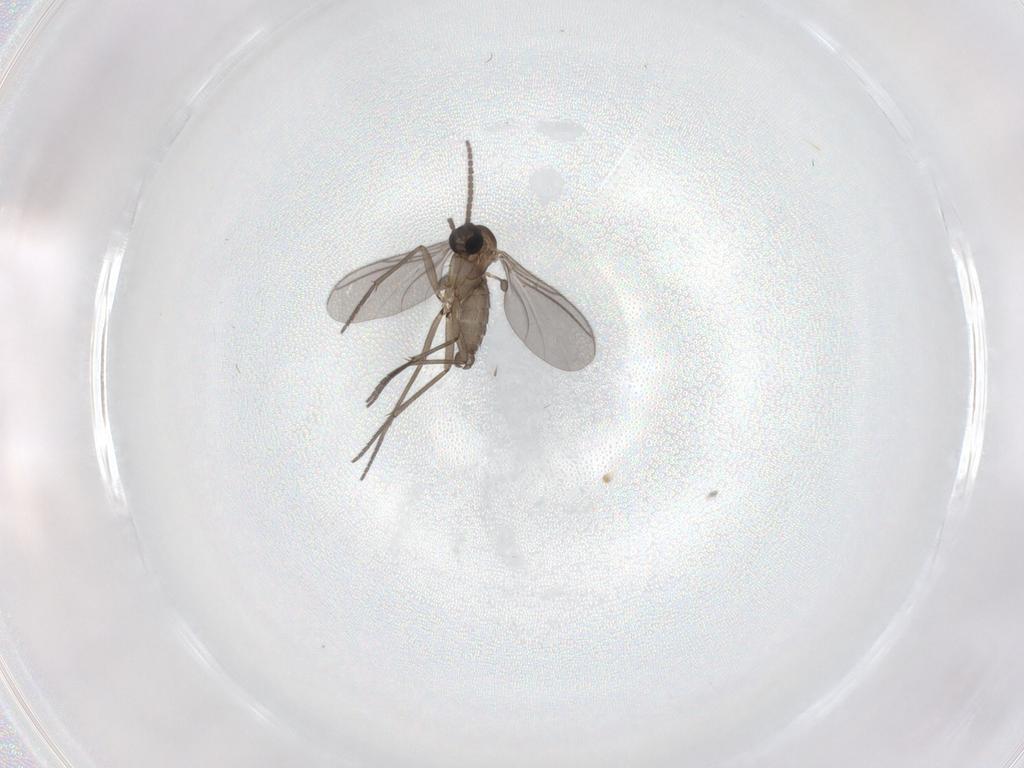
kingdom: Animalia
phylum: Arthropoda
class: Insecta
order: Diptera
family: Sciaridae
